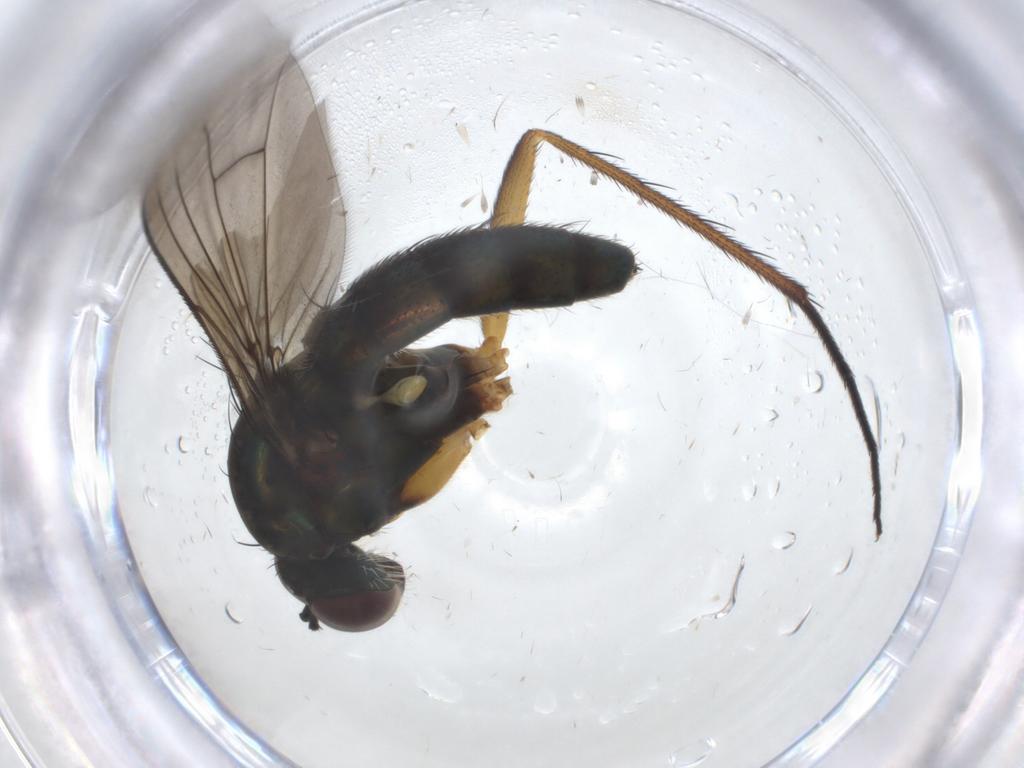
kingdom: Animalia
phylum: Arthropoda
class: Insecta
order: Diptera
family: Dolichopodidae
